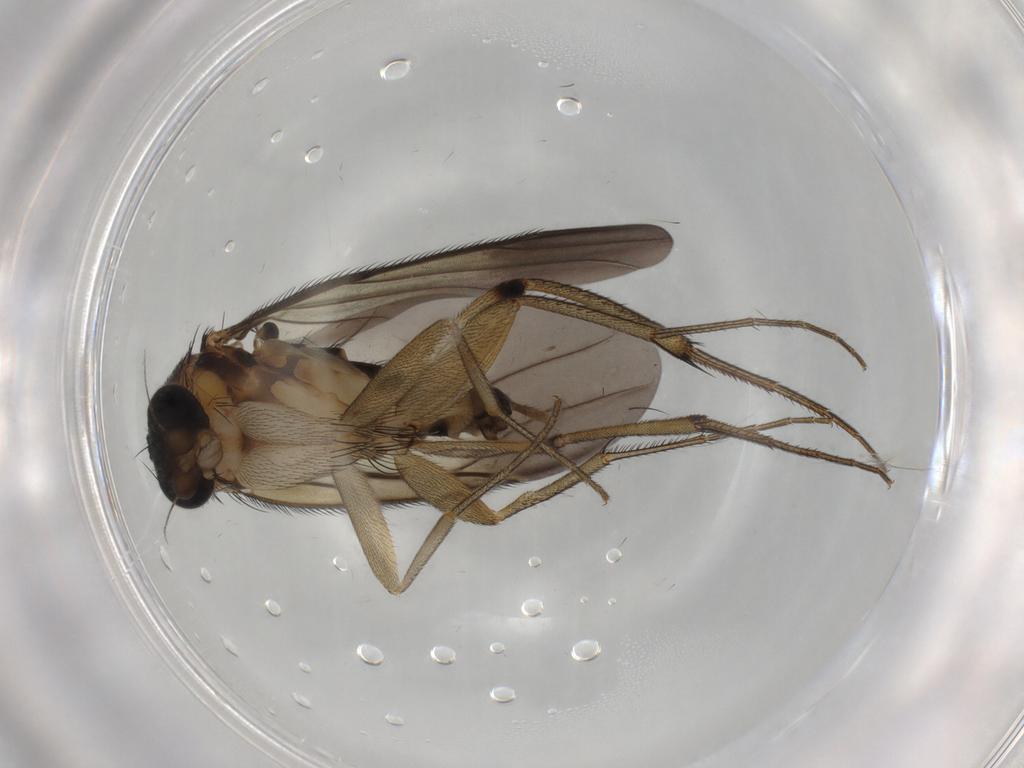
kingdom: Animalia
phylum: Arthropoda
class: Insecta
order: Diptera
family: Phoridae
